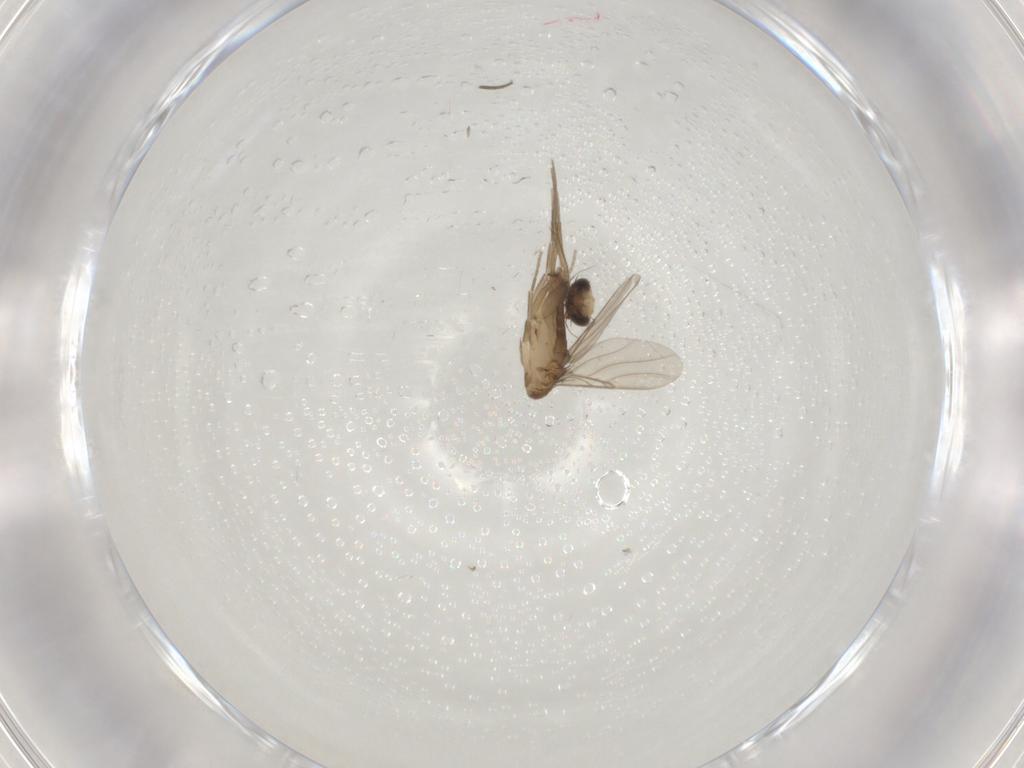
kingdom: Animalia
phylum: Arthropoda
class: Insecta
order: Diptera
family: Phoridae
